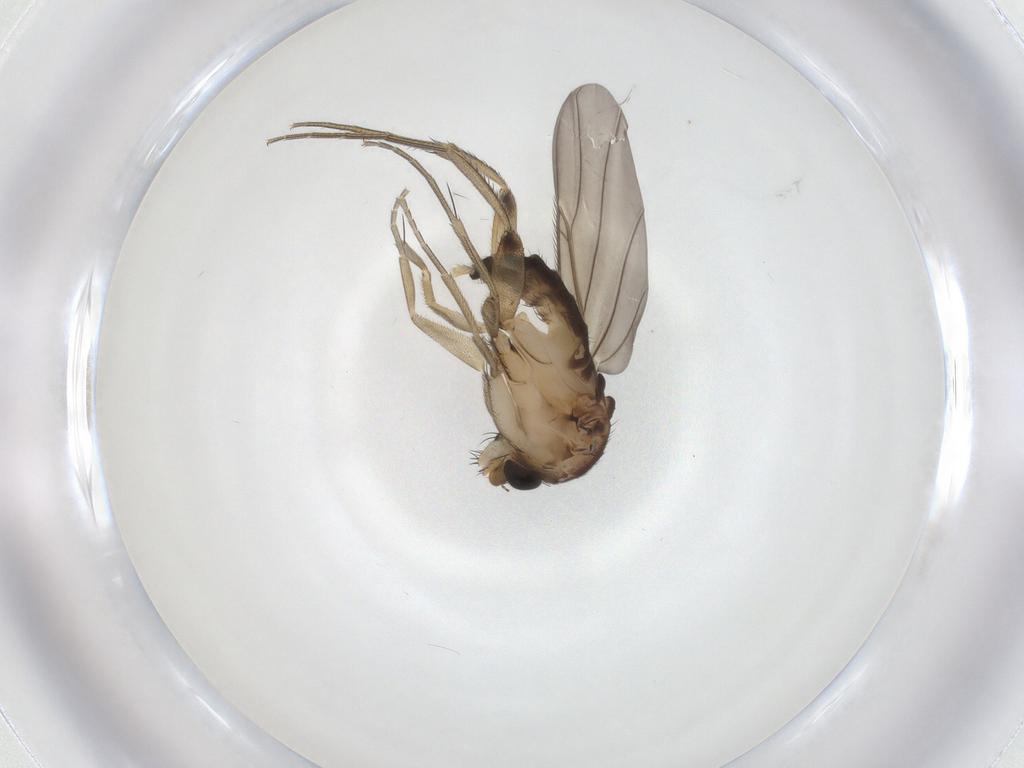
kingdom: Animalia
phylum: Arthropoda
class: Insecta
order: Diptera
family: Phoridae
